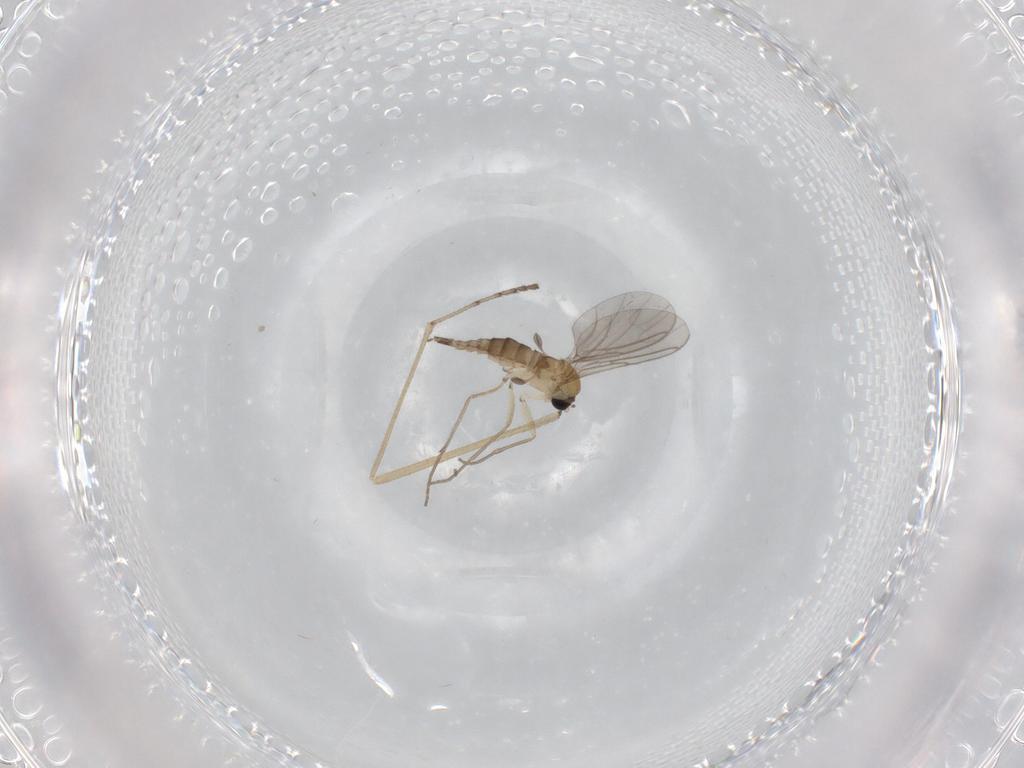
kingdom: Animalia
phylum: Arthropoda
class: Insecta
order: Diptera
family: Limoniidae
